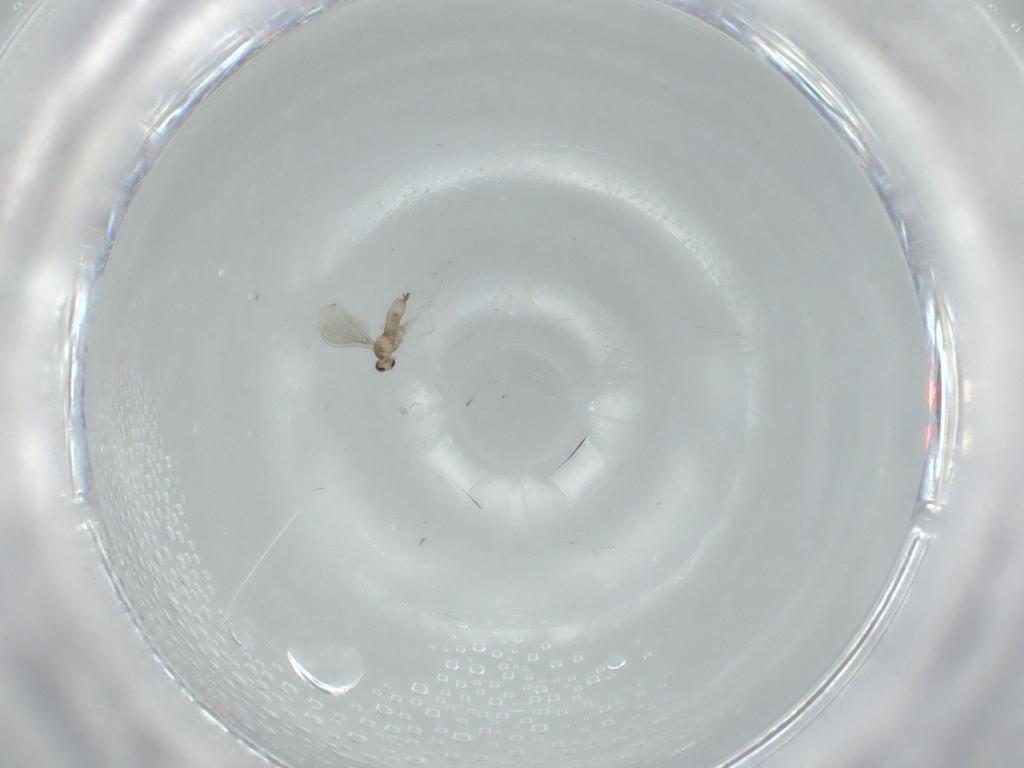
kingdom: Animalia
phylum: Arthropoda
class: Insecta
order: Diptera
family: Cecidomyiidae
